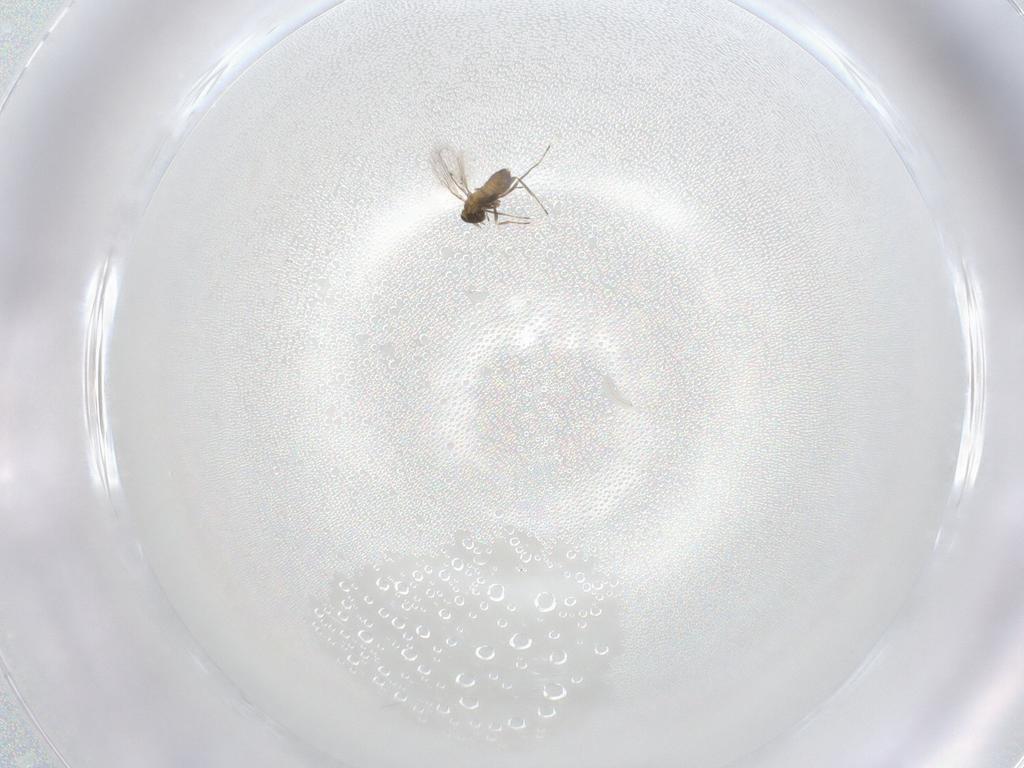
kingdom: Animalia
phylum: Arthropoda
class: Insecta
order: Hymenoptera
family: Trichogrammatidae
